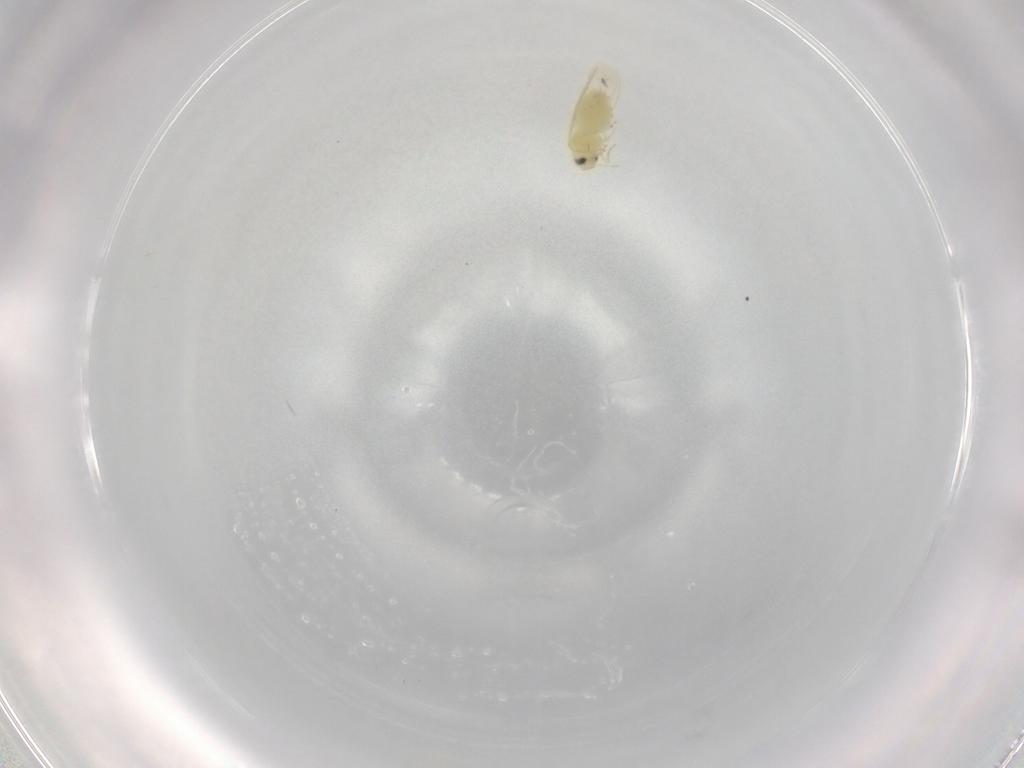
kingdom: Animalia
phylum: Arthropoda
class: Insecta
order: Hemiptera
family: Aleyrodidae
